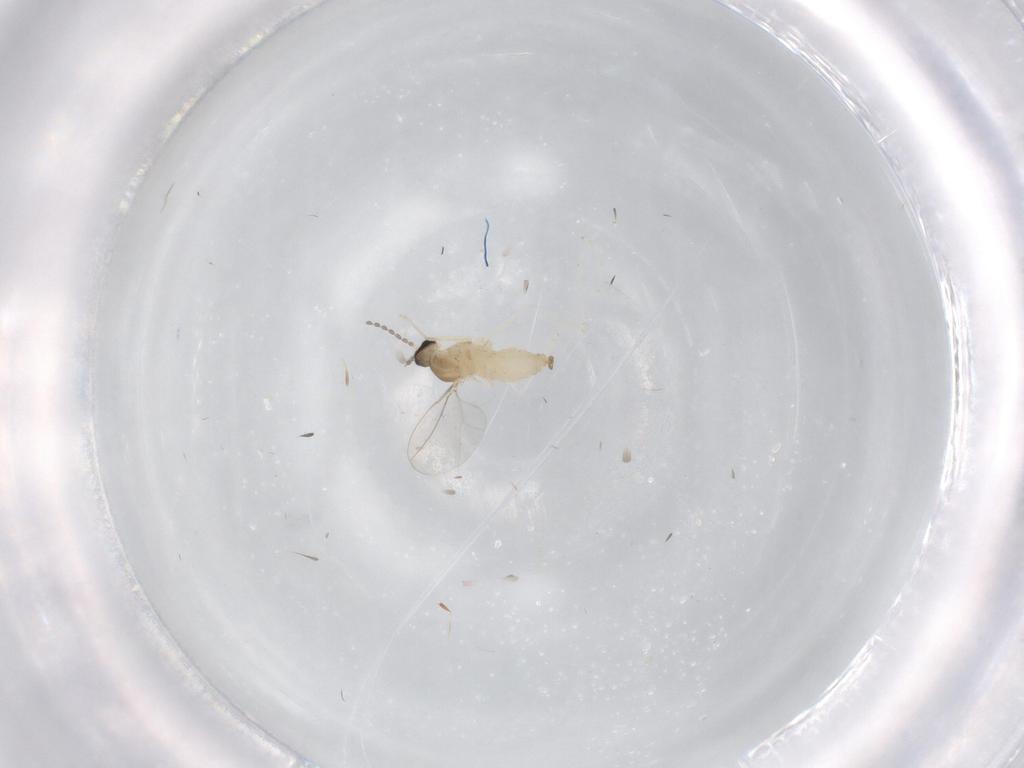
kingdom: Animalia
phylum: Arthropoda
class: Insecta
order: Diptera
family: Cecidomyiidae
